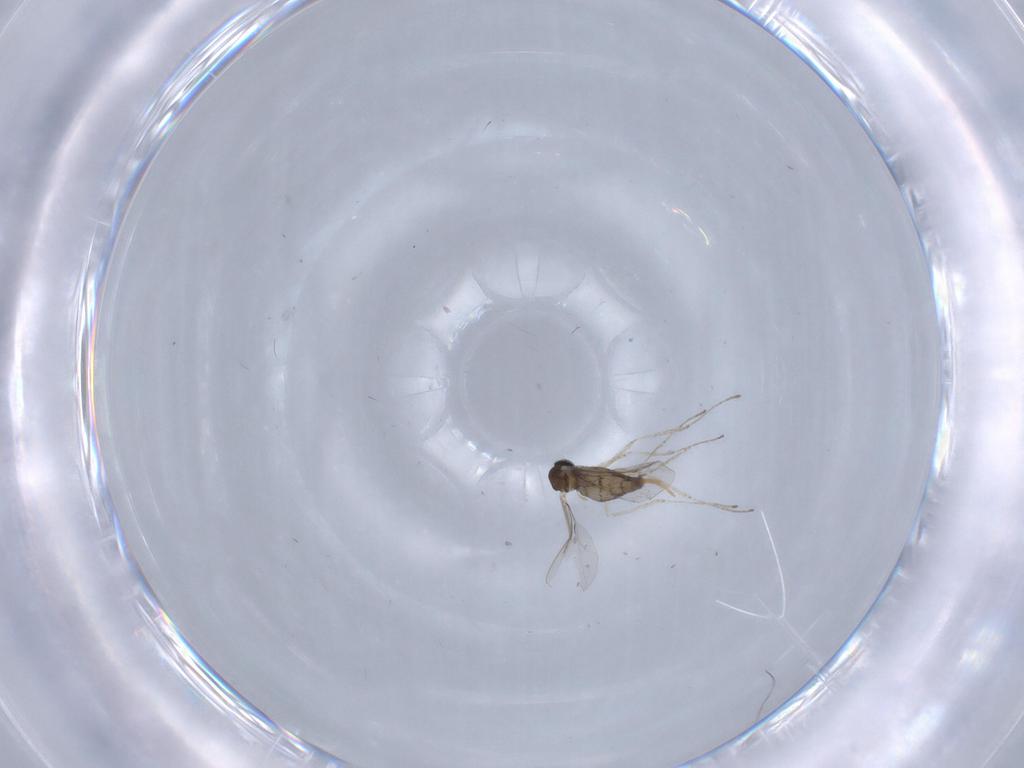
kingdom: Animalia
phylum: Arthropoda
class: Insecta
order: Diptera
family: Cecidomyiidae
